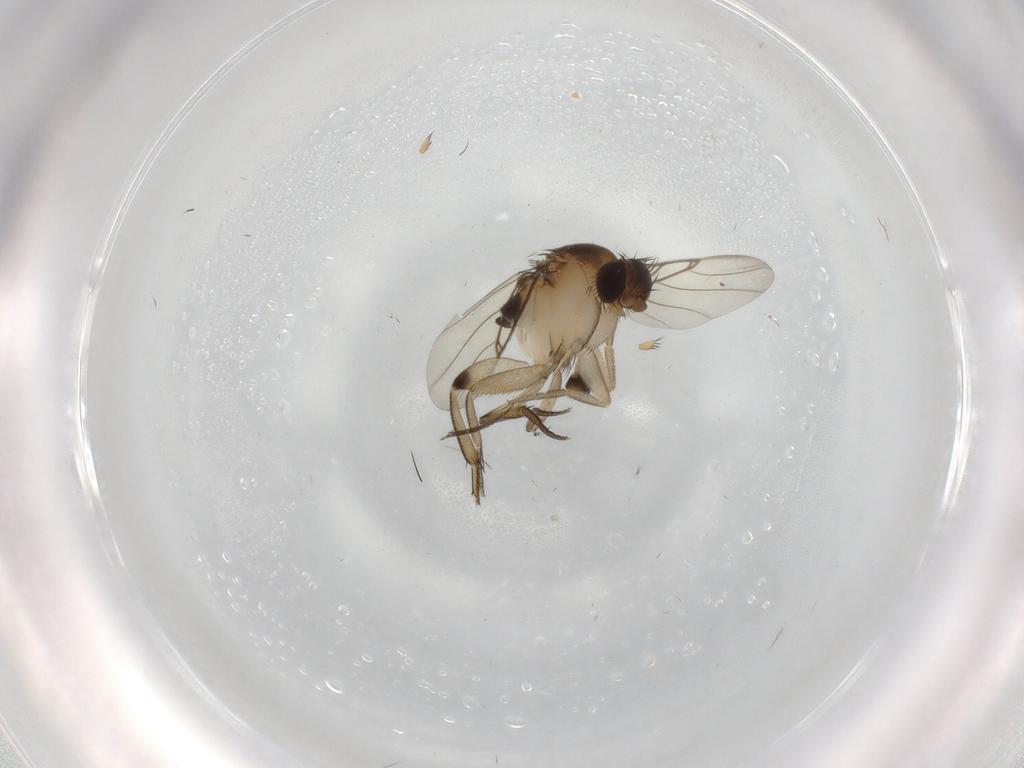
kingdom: Animalia
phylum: Arthropoda
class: Insecta
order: Diptera
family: Phoridae
